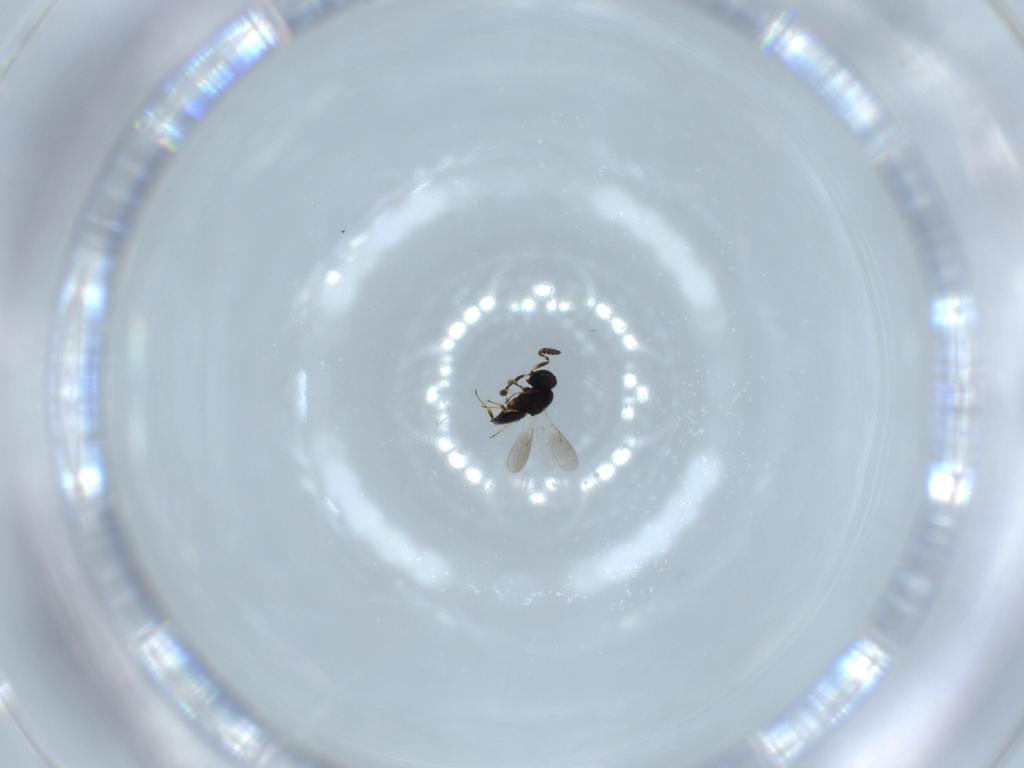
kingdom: Animalia
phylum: Arthropoda
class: Insecta
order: Hymenoptera
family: Scelionidae
